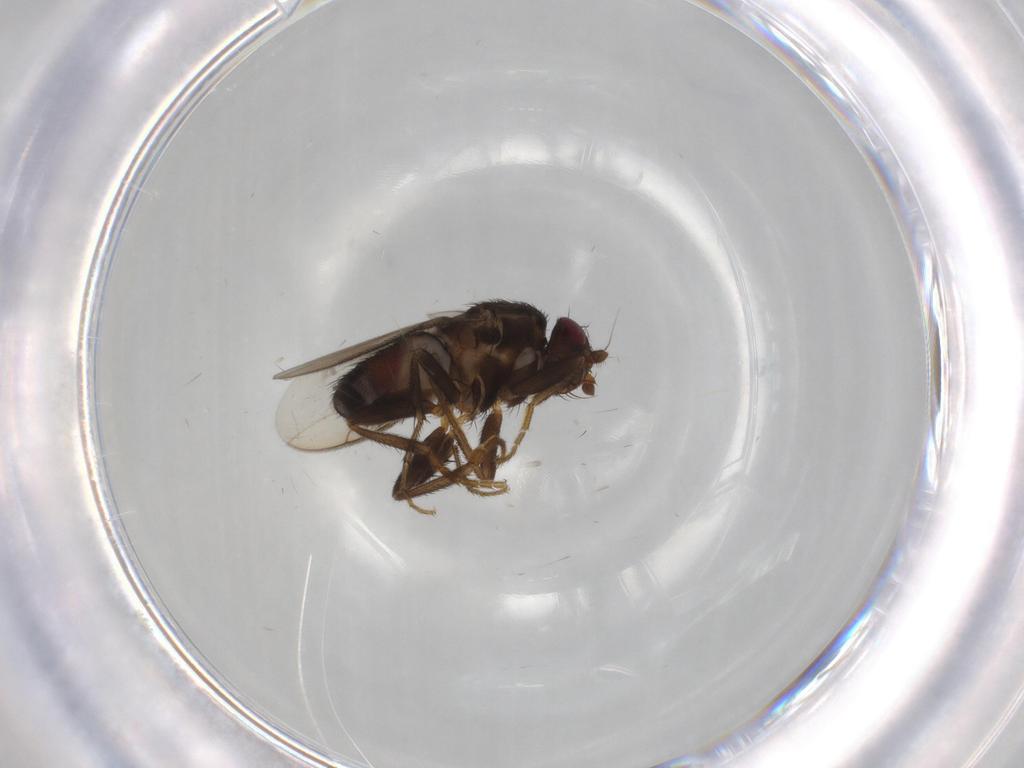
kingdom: Animalia
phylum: Arthropoda
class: Insecta
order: Diptera
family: Sphaeroceridae
